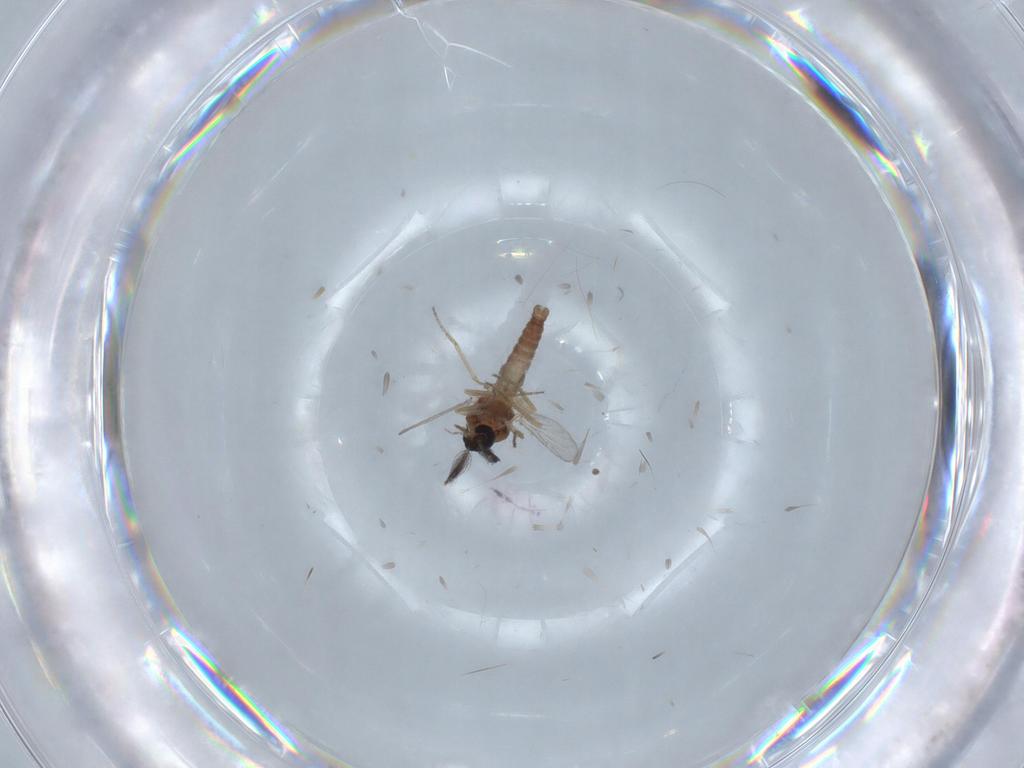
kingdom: Animalia
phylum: Arthropoda
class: Insecta
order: Diptera
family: Ceratopogonidae
